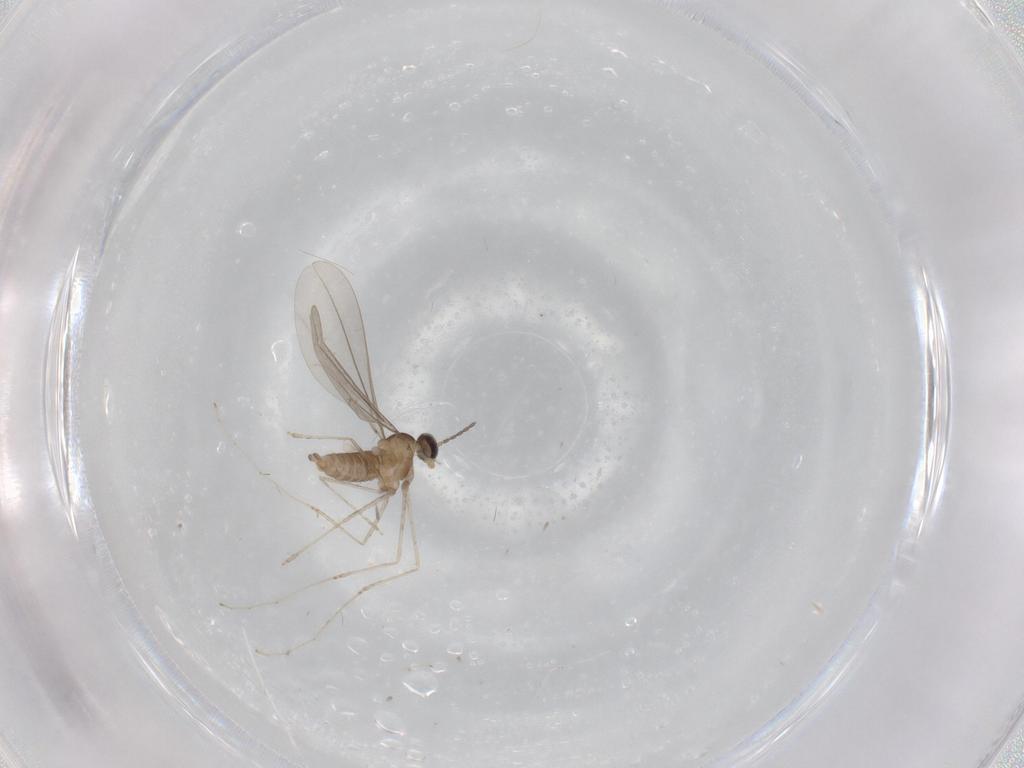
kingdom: Animalia
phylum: Arthropoda
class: Insecta
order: Diptera
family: Cecidomyiidae
